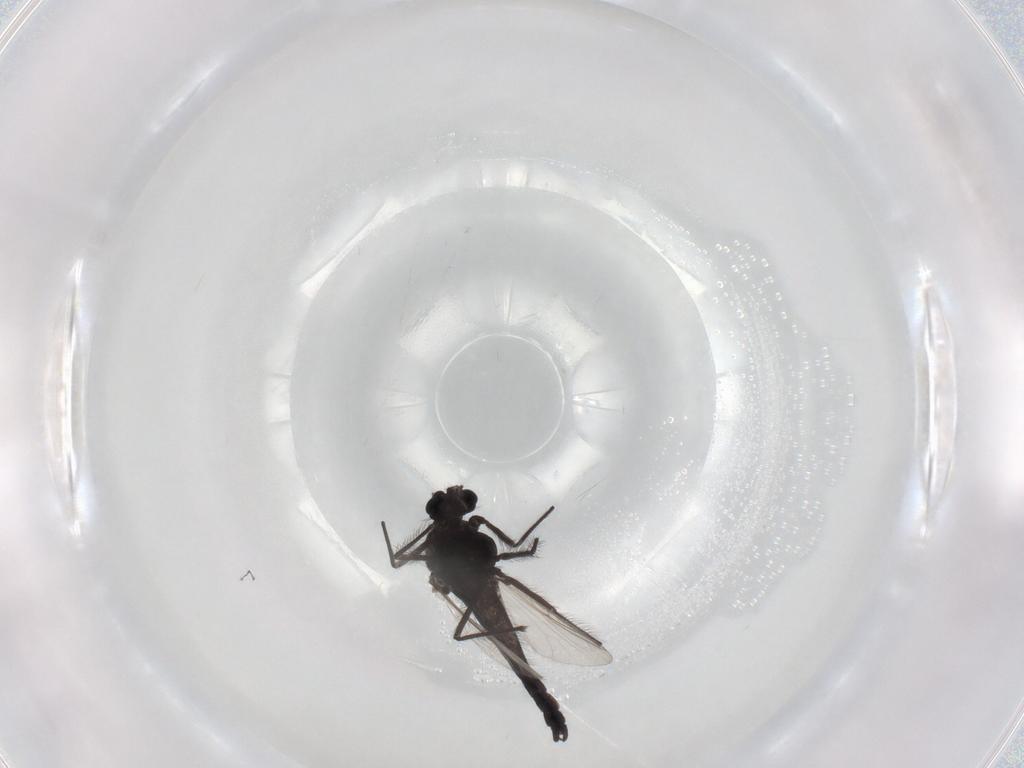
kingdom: Animalia
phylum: Arthropoda
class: Insecta
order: Diptera
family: Chironomidae
